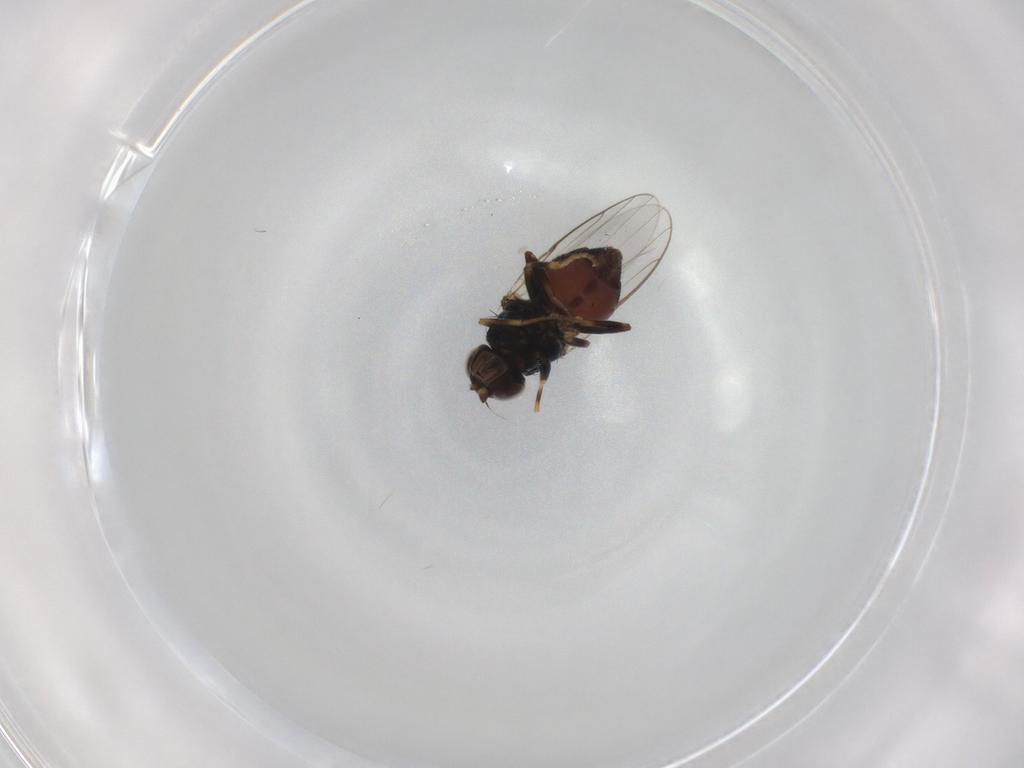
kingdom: Animalia
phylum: Arthropoda
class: Insecta
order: Diptera
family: Chloropidae
